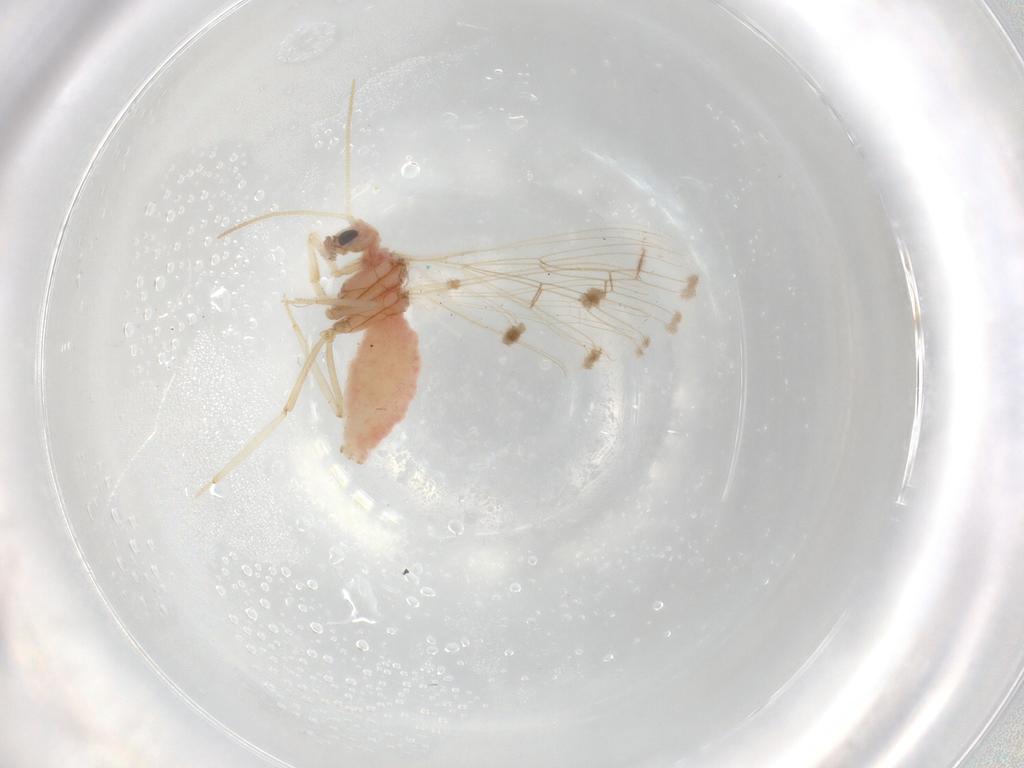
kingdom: Animalia
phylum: Arthropoda
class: Insecta
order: Neuroptera
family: Coniopterygidae
